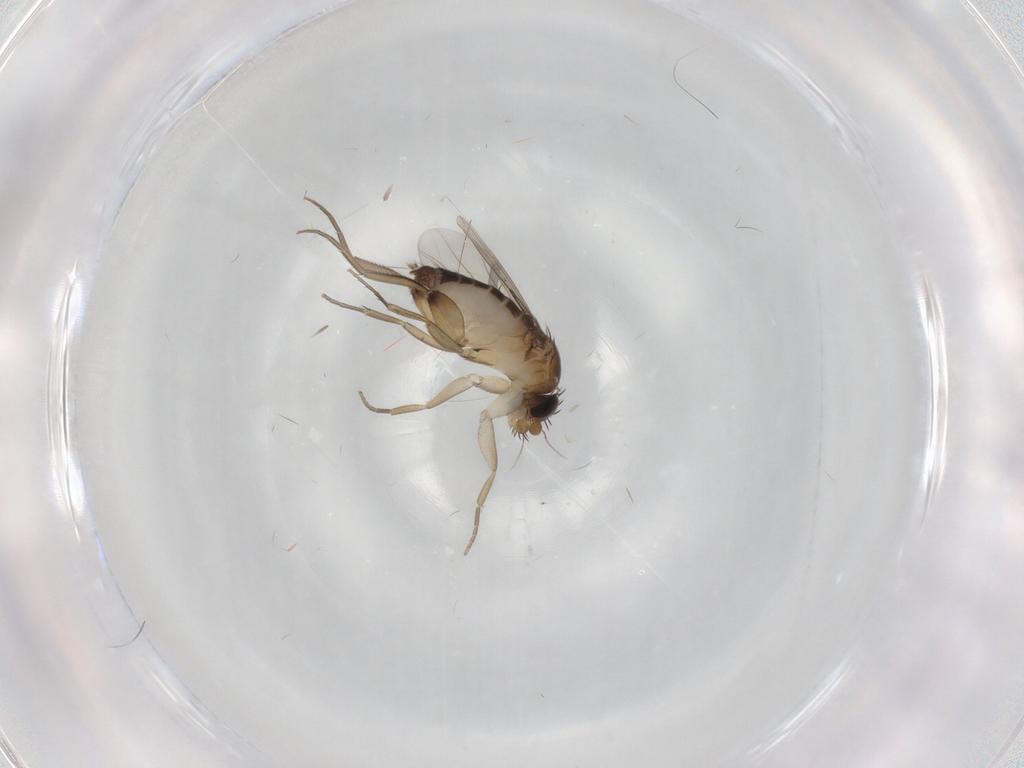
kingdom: Animalia
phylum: Arthropoda
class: Insecta
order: Diptera
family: Phoridae
